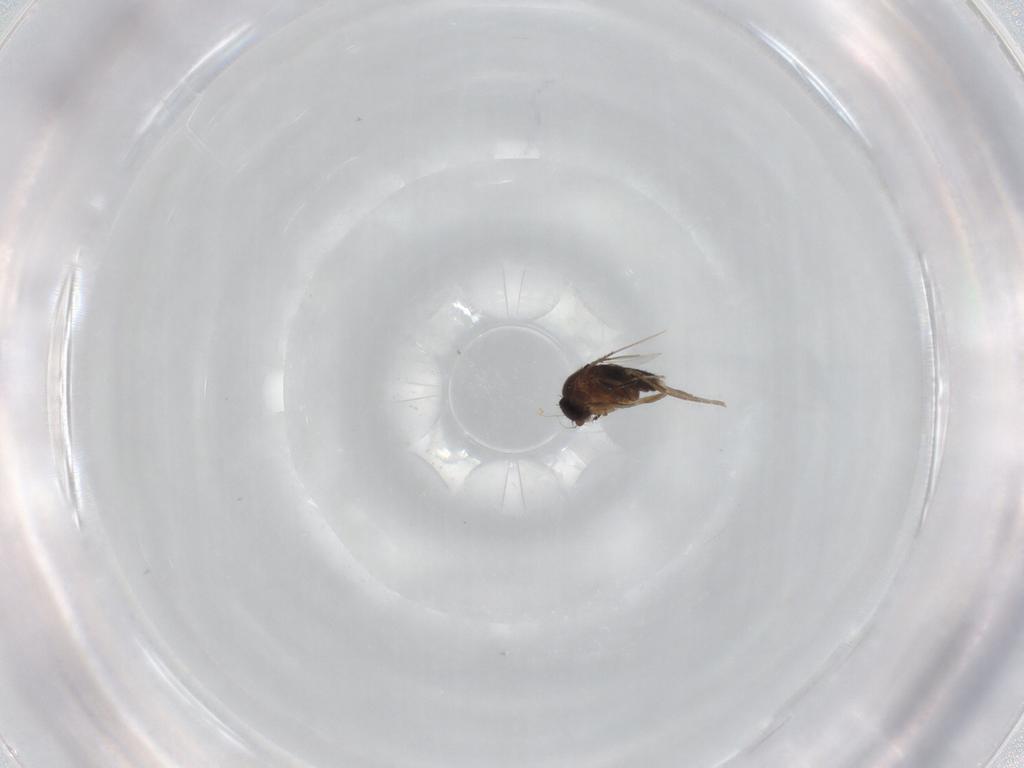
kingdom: Animalia
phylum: Arthropoda
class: Insecta
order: Diptera
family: Phoridae
